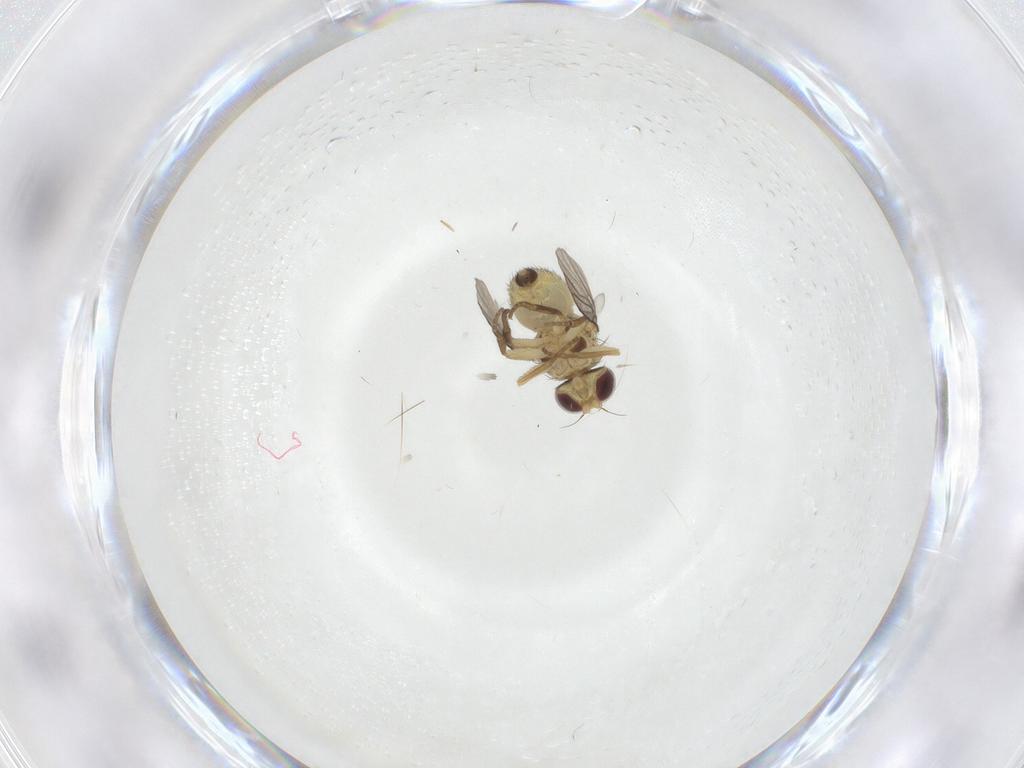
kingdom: Animalia
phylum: Arthropoda
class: Insecta
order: Diptera
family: Agromyzidae
